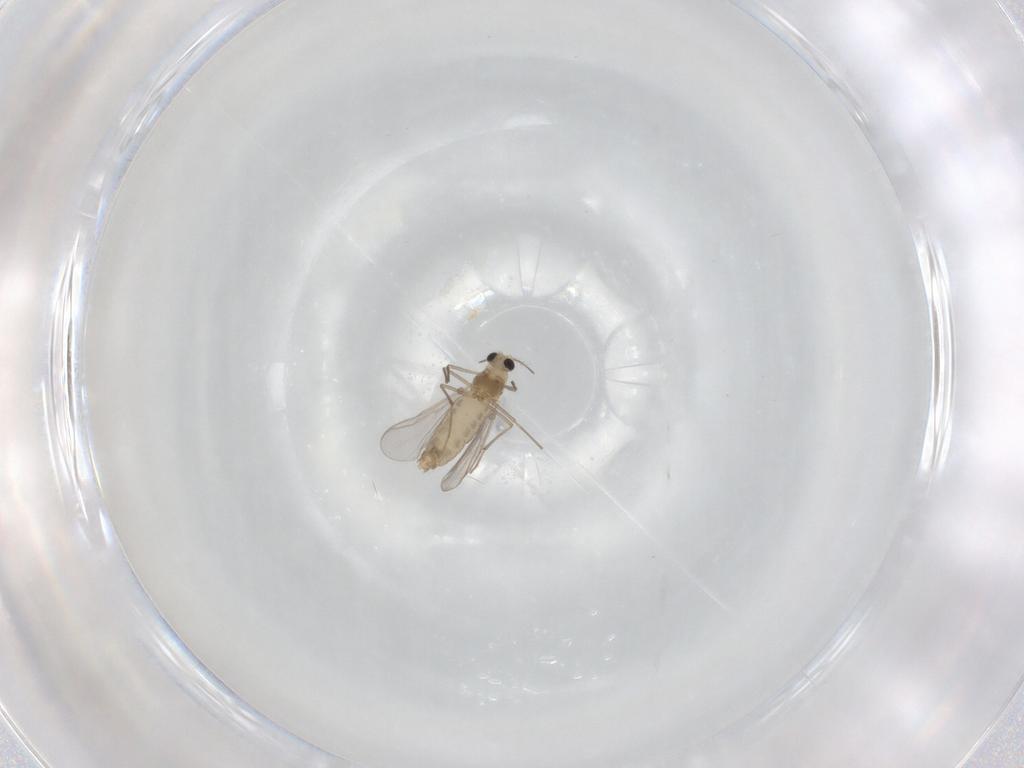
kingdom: Animalia
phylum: Arthropoda
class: Insecta
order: Diptera
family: Chironomidae
